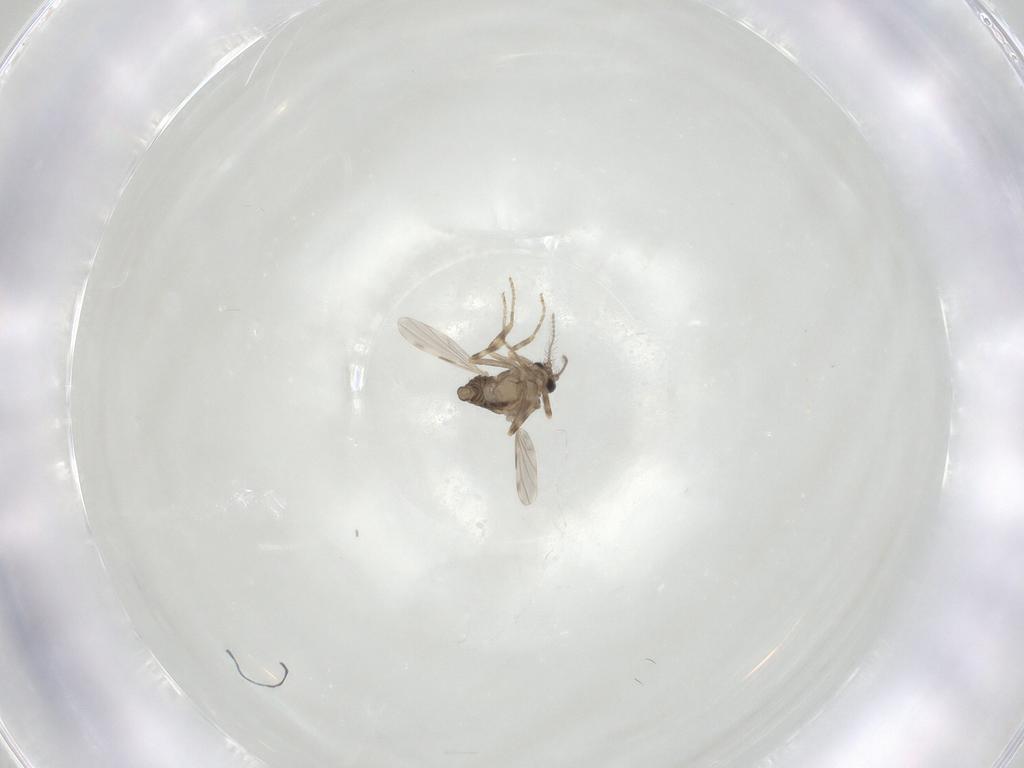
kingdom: Animalia
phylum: Arthropoda
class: Insecta
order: Diptera
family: Ceratopogonidae
